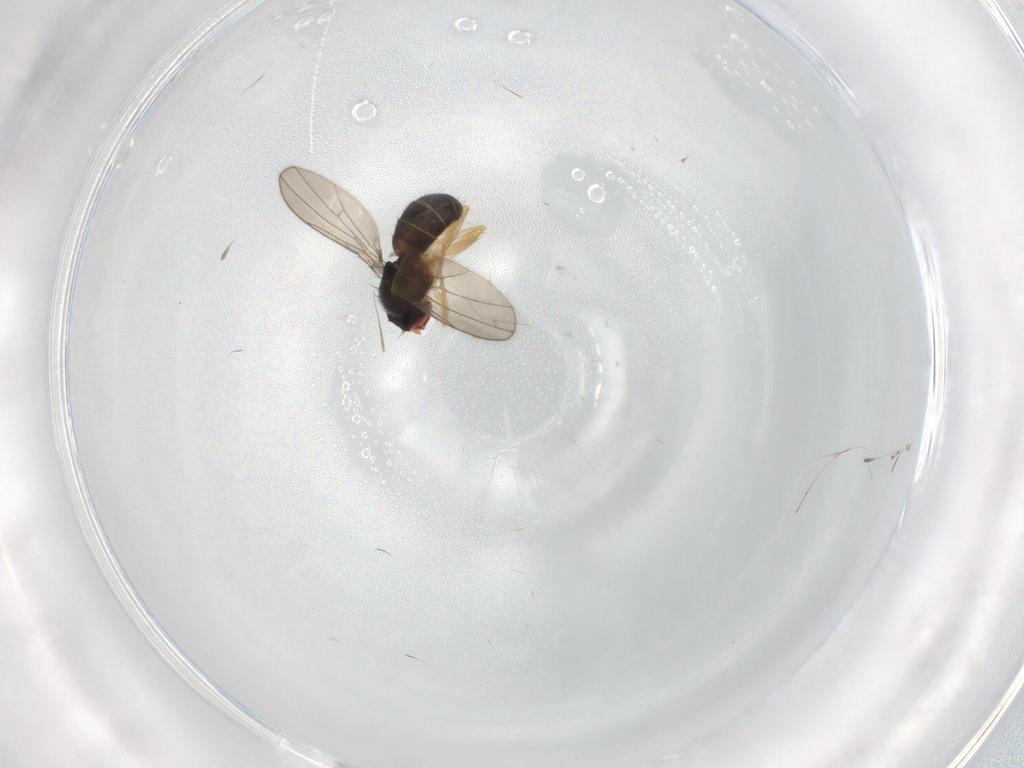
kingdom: Animalia
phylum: Arthropoda
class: Insecta
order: Diptera
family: Drosophilidae
